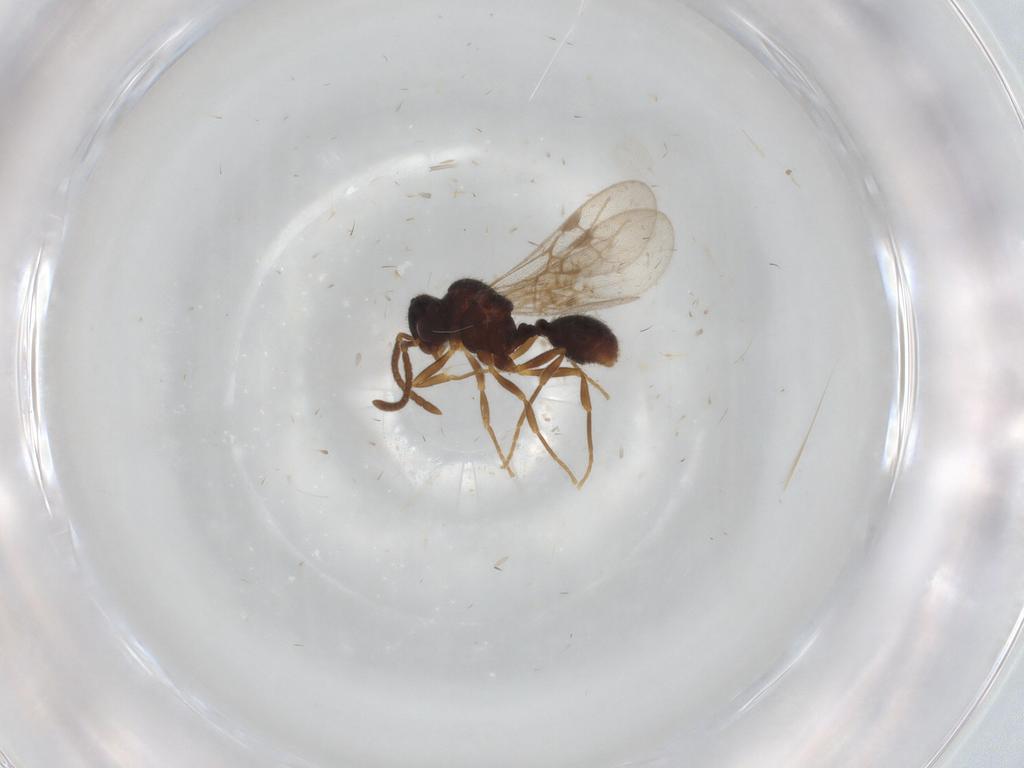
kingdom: Animalia
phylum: Arthropoda
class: Insecta
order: Hymenoptera
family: Formicidae
